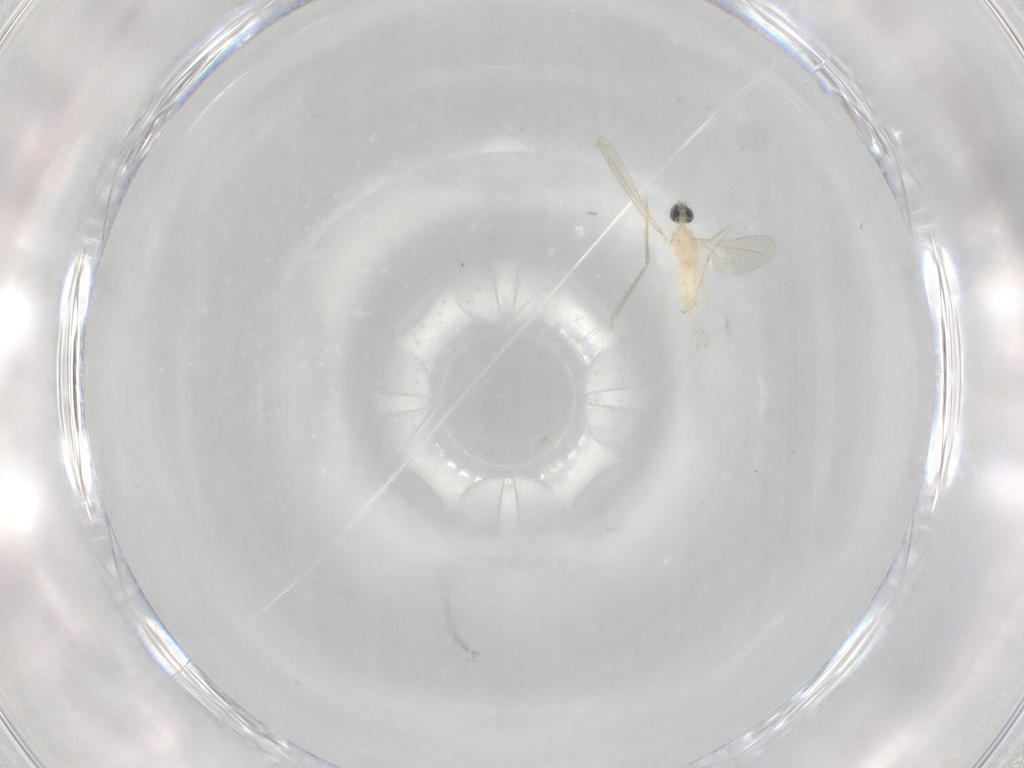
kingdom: Animalia
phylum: Arthropoda
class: Insecta
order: Diptera
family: Cecidomyiidae
